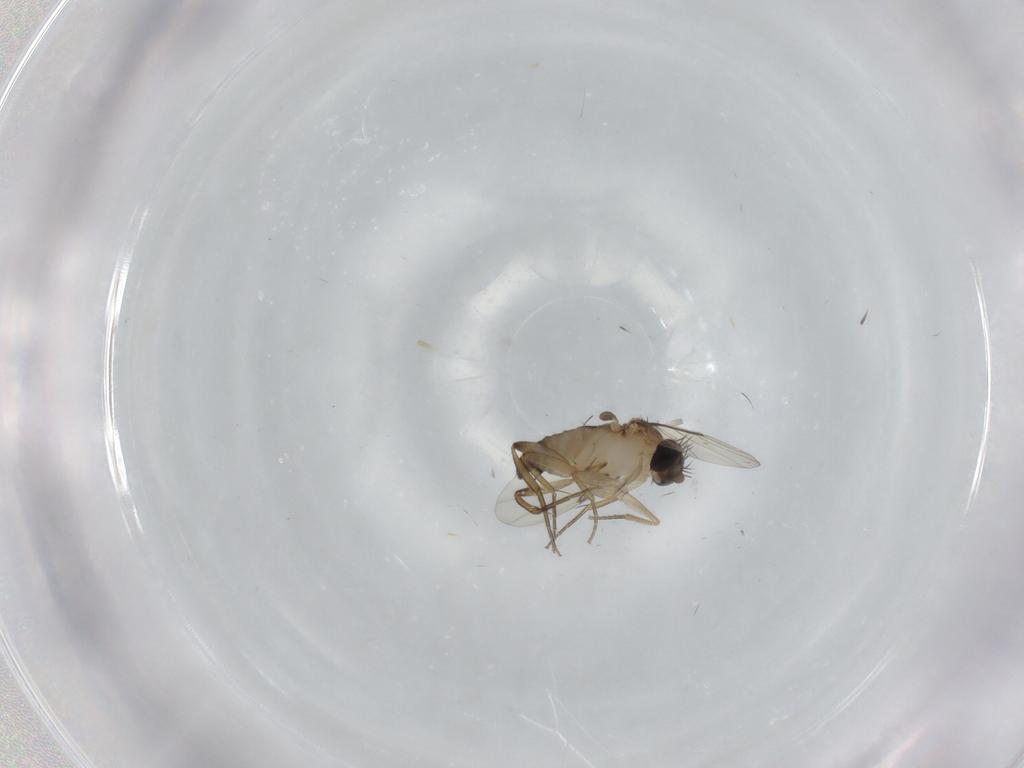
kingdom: Animalia
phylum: Arthropoda
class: Insecta
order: Diptera
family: Phoridae
